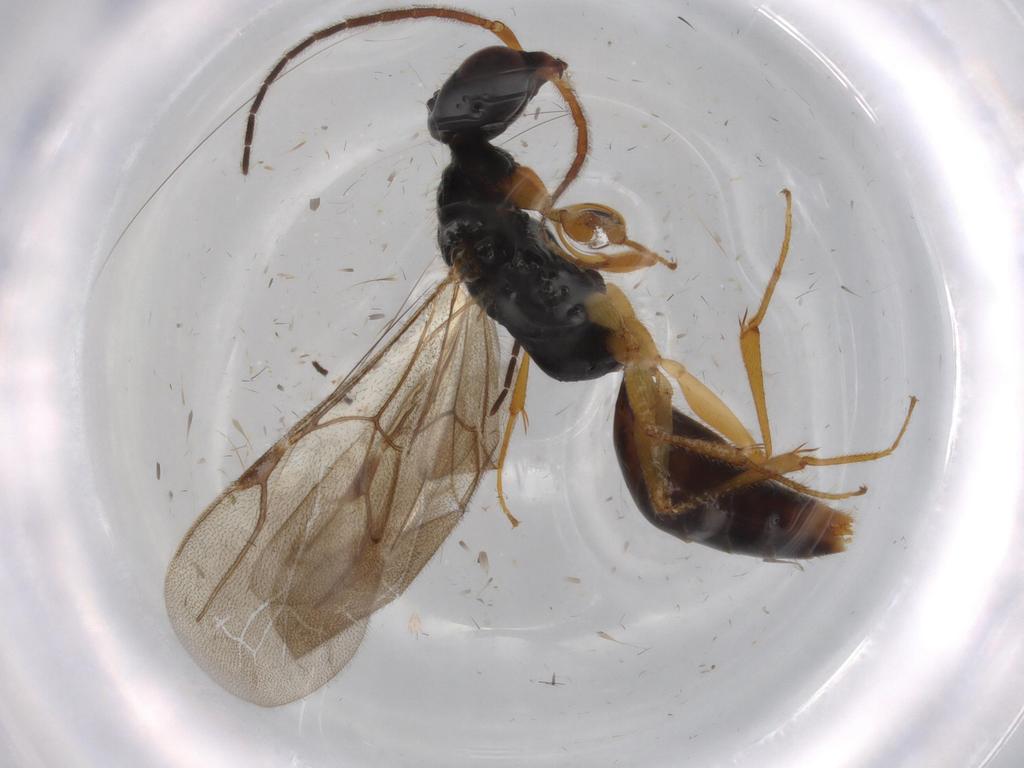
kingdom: Animalia
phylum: Arthropoda
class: Insecta
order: Hymenoptera
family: Bethylidae
